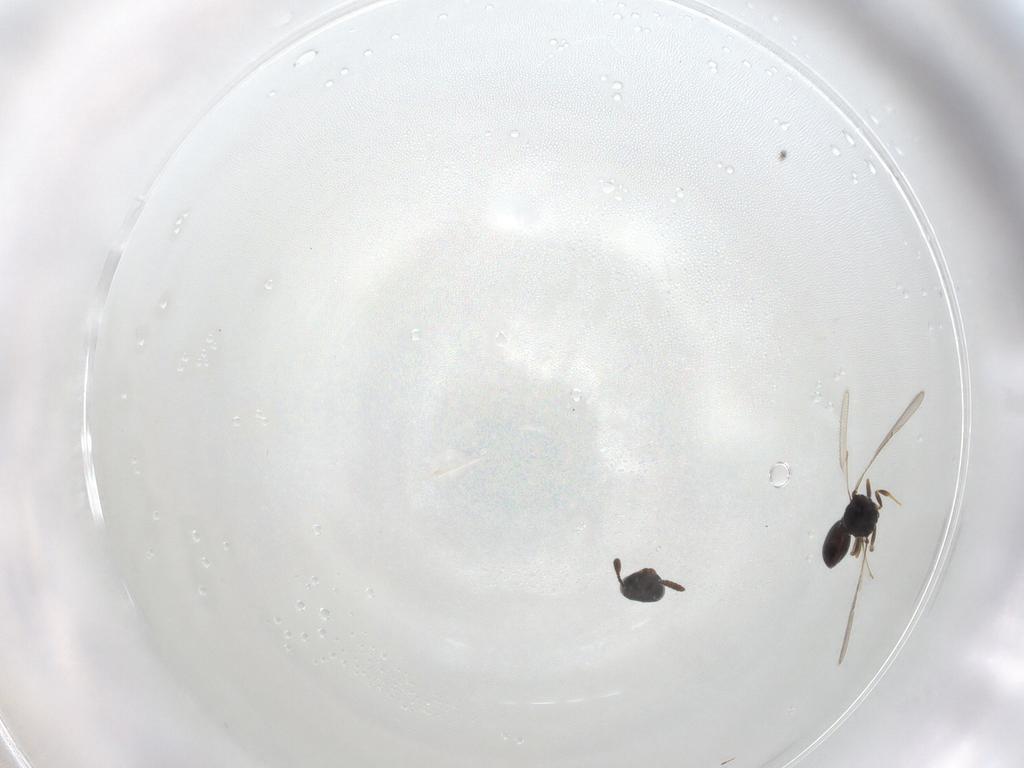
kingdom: Animalia
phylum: Arthropoda
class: Insecta
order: Hymenoptera
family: Scelionidae
